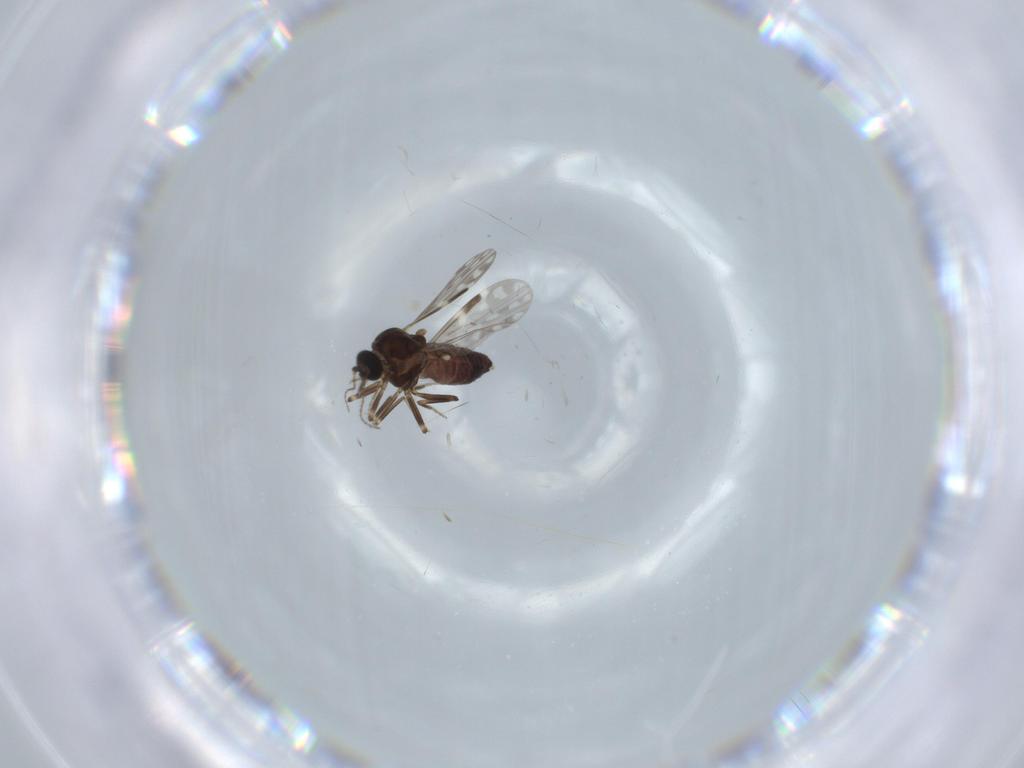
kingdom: Animalia
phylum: Arthropoda
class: Insecta
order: Diptera
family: Ceratopogonidae
